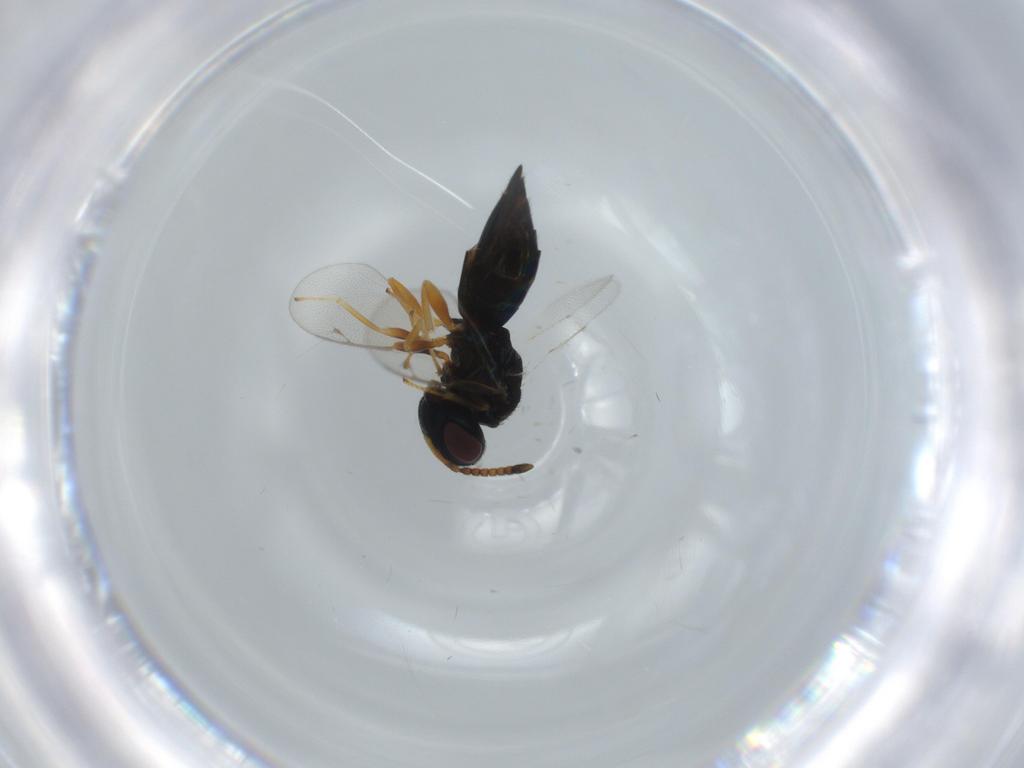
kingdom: Animalia
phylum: Arthropoda
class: Insecta
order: Hymenoptera
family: Pteromalidae
